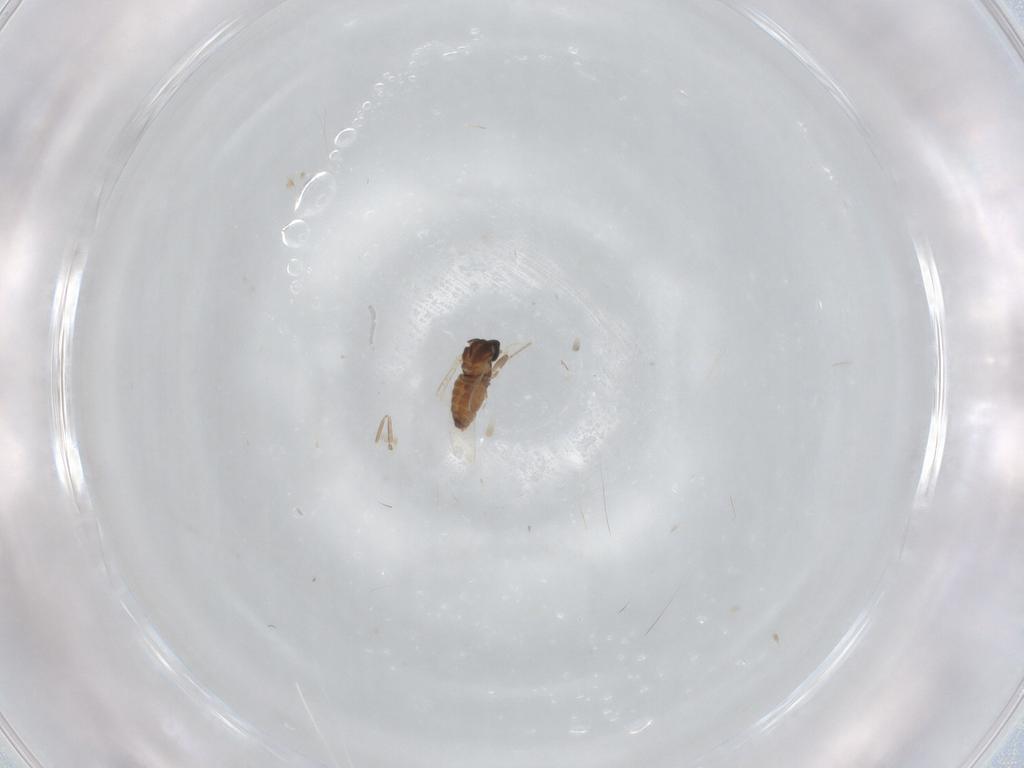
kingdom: Animalia
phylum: Arthropoda
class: Insecta
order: Diptera
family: Cecidomyiidae
